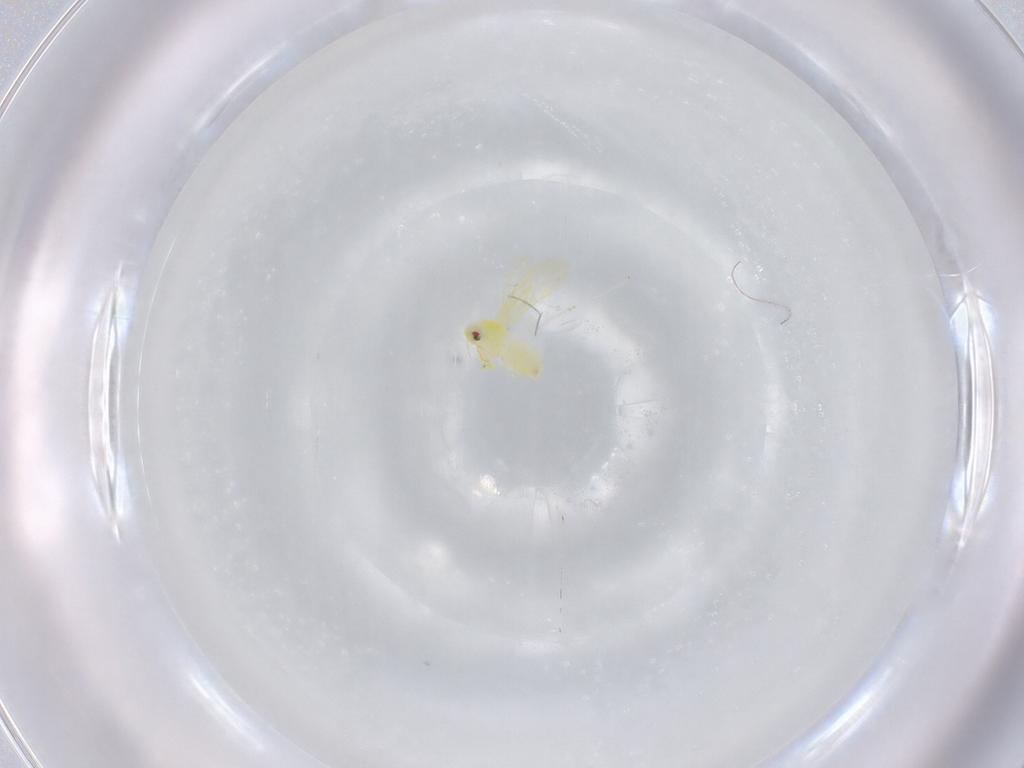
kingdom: Animalia
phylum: Arthropoda
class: Insecta
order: Hemiptera
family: Aleyrodidae
